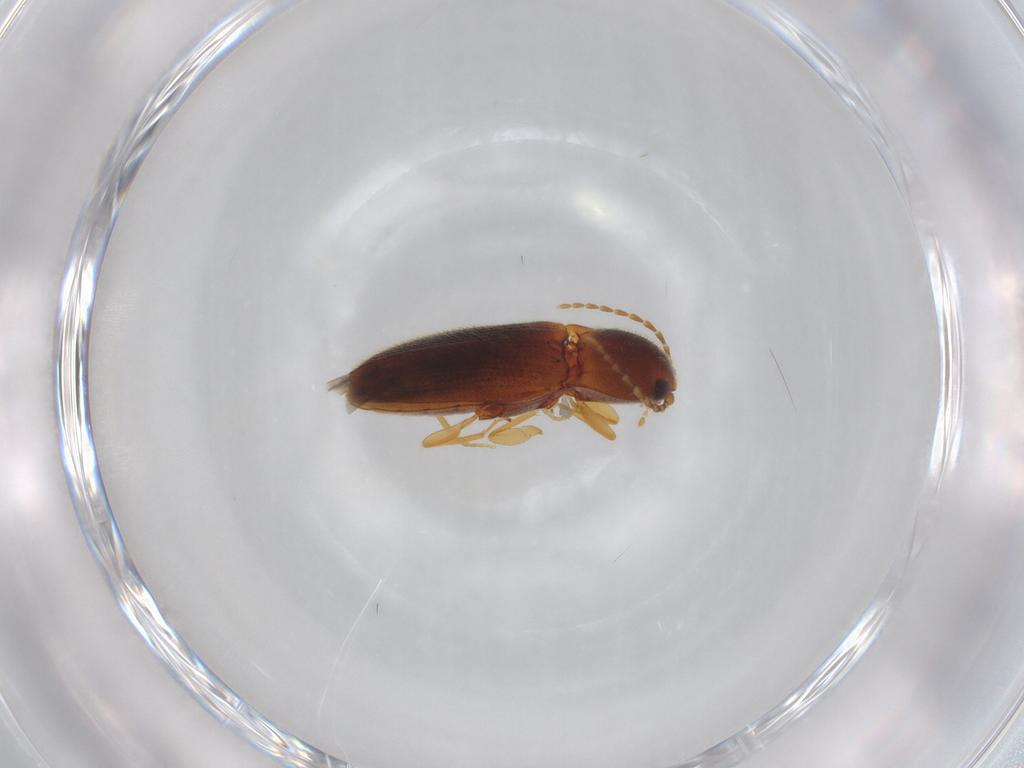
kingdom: Animalia
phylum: Arthropoda
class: Insecta
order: Coleoptera
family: Elateridae
